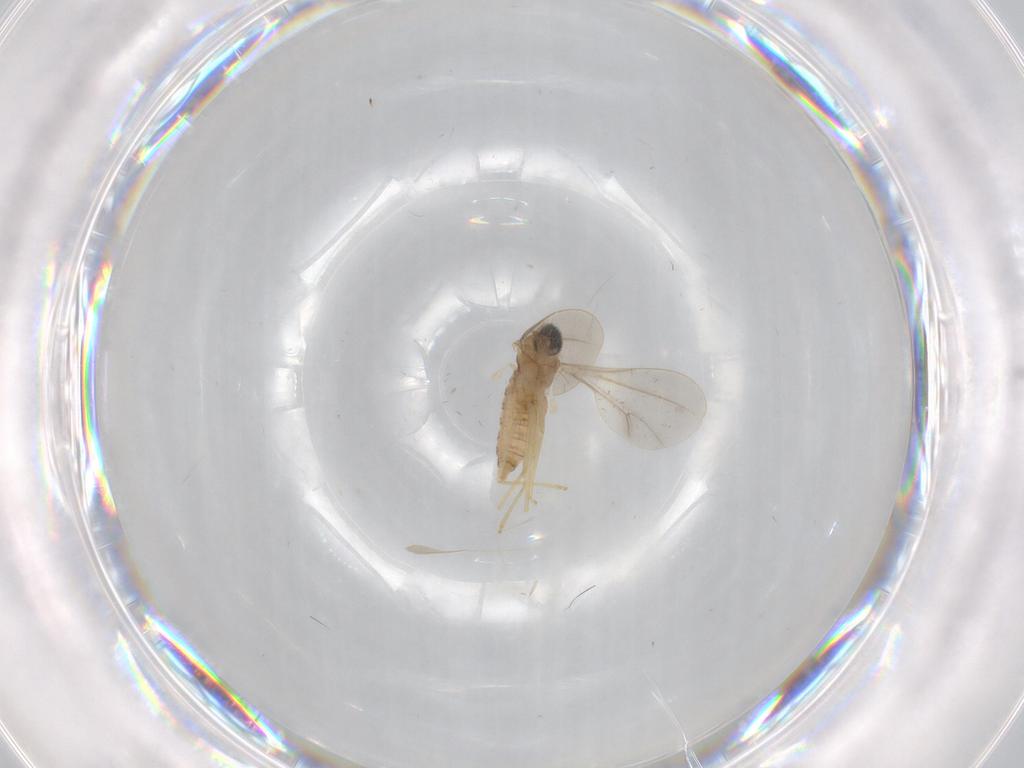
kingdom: Animalia
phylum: Arthropoda
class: Insecta
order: Diptera
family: Cecidomyiidae
